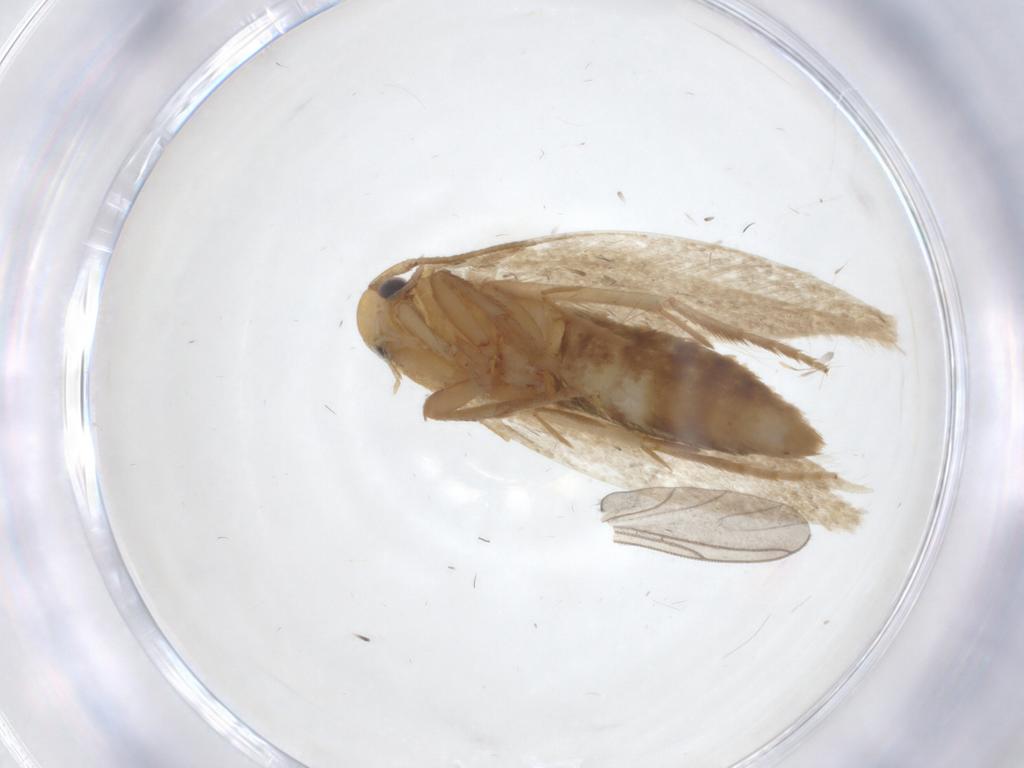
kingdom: Animalia
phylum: Arthropoda
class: Insecta
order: Lepidoptera
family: Tineidae
